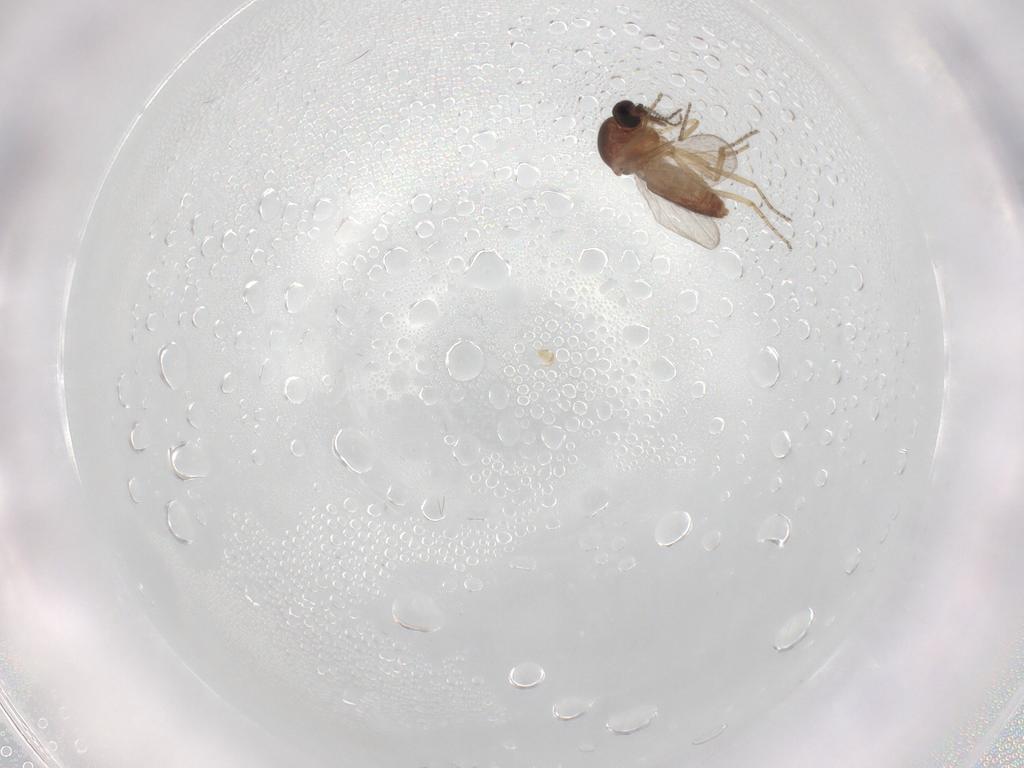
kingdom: Animalia
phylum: Arthropoda
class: Insecta
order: Diptera
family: Ceratopogonidae
